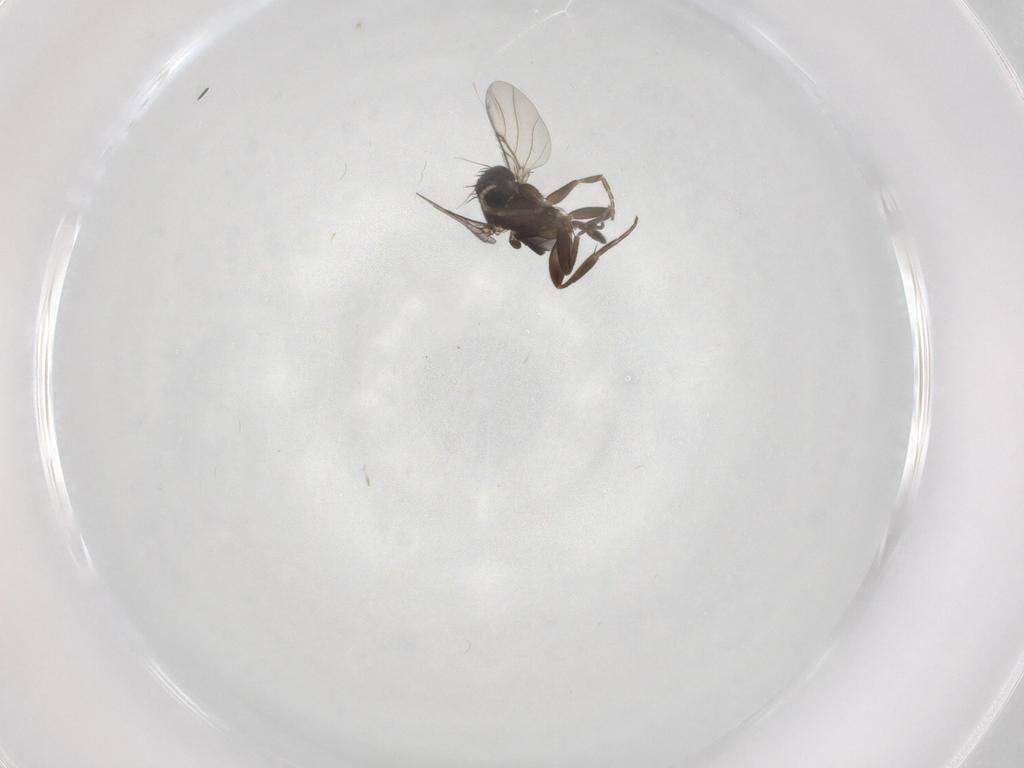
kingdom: Animalia
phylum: Arthropoda
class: Insecta
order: Diptera
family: Phoridae
